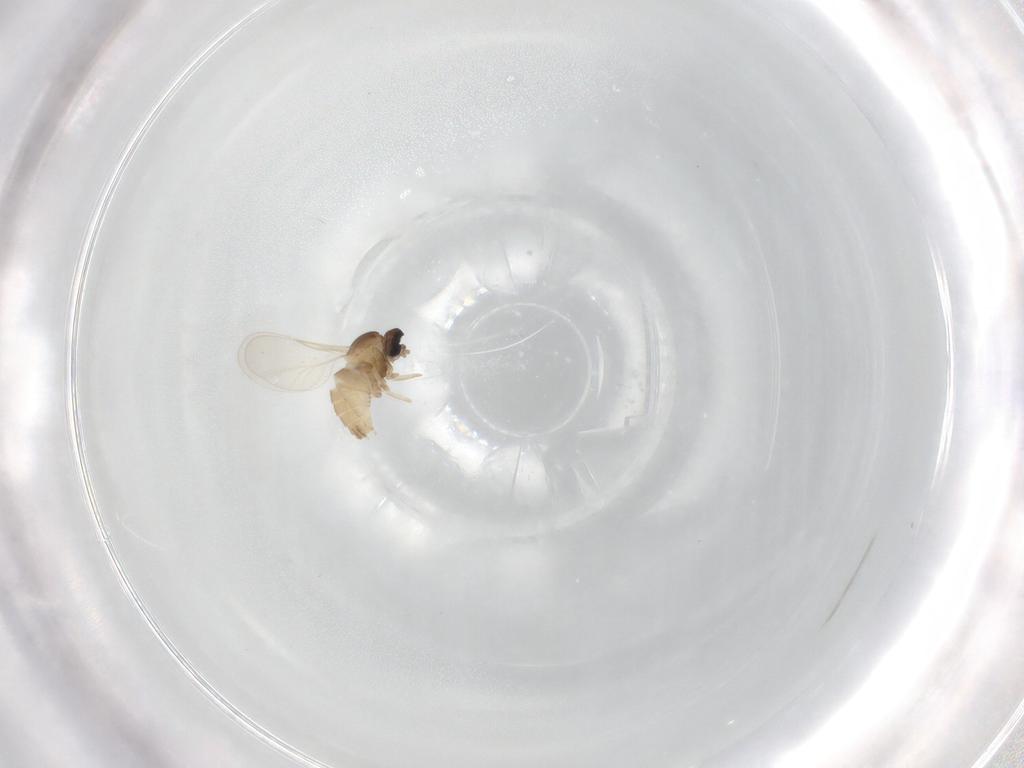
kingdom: Animalia
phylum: Arthropoda
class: Insecta
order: Diptera
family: Cecidomyiidae
